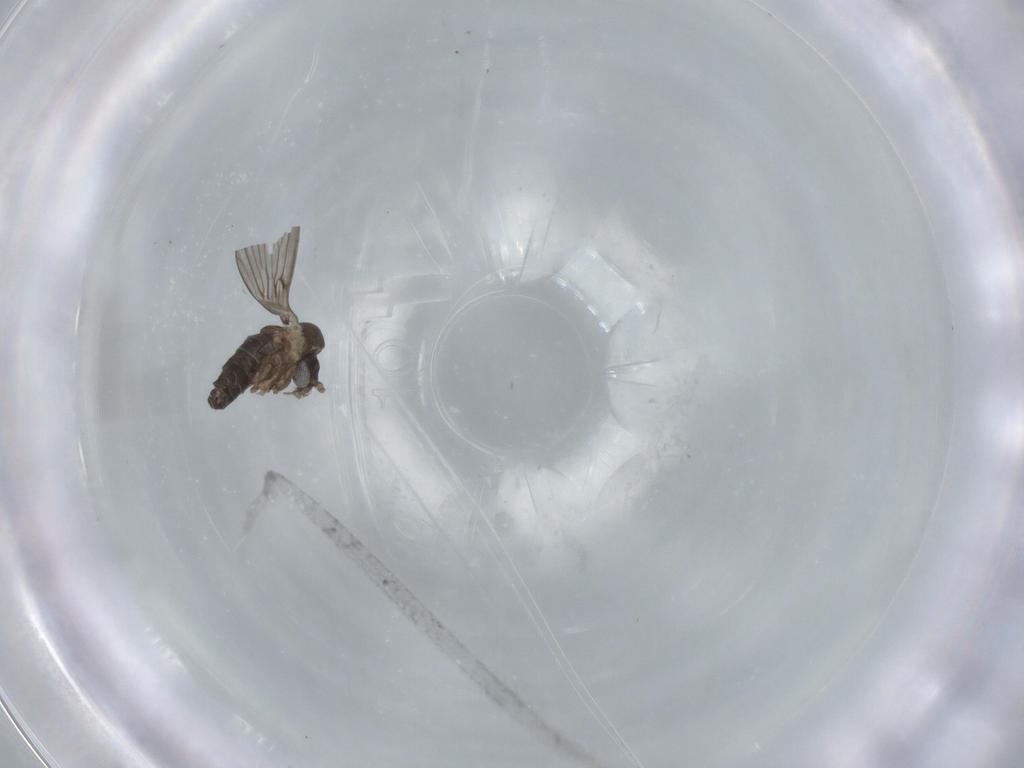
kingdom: Animalia
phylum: Arthropoda
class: Insecta
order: Diptera
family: Psychodidae
